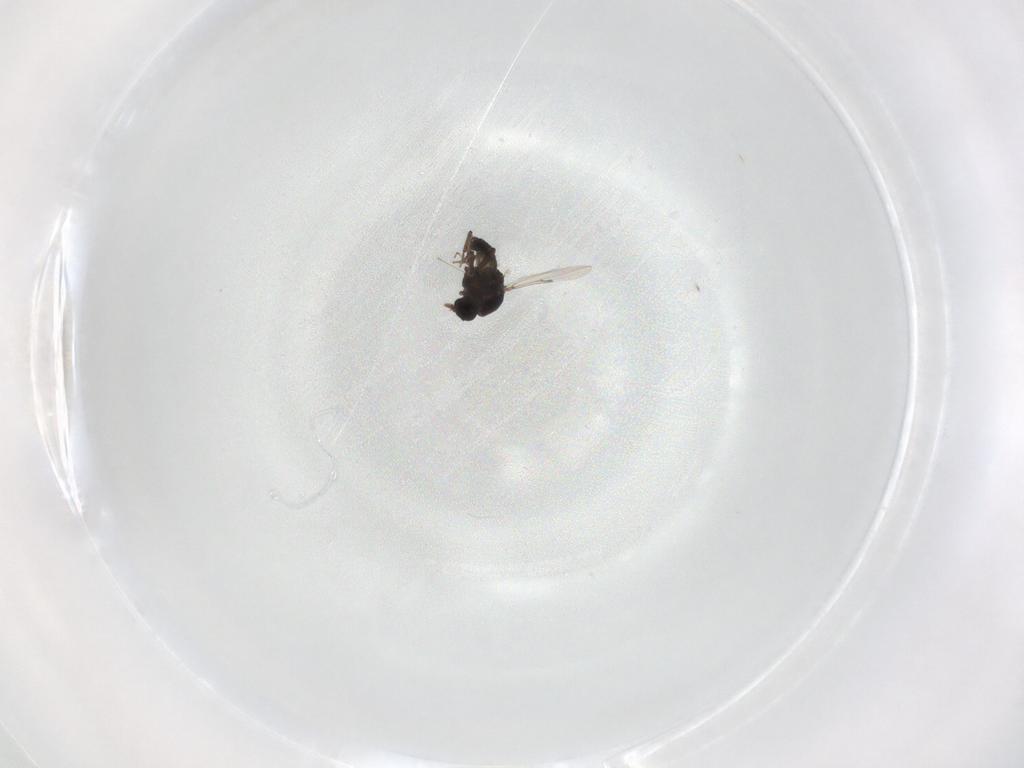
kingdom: Animalia
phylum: Arthropoda
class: Insecta
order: Diptera
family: Ceratopogonidae
